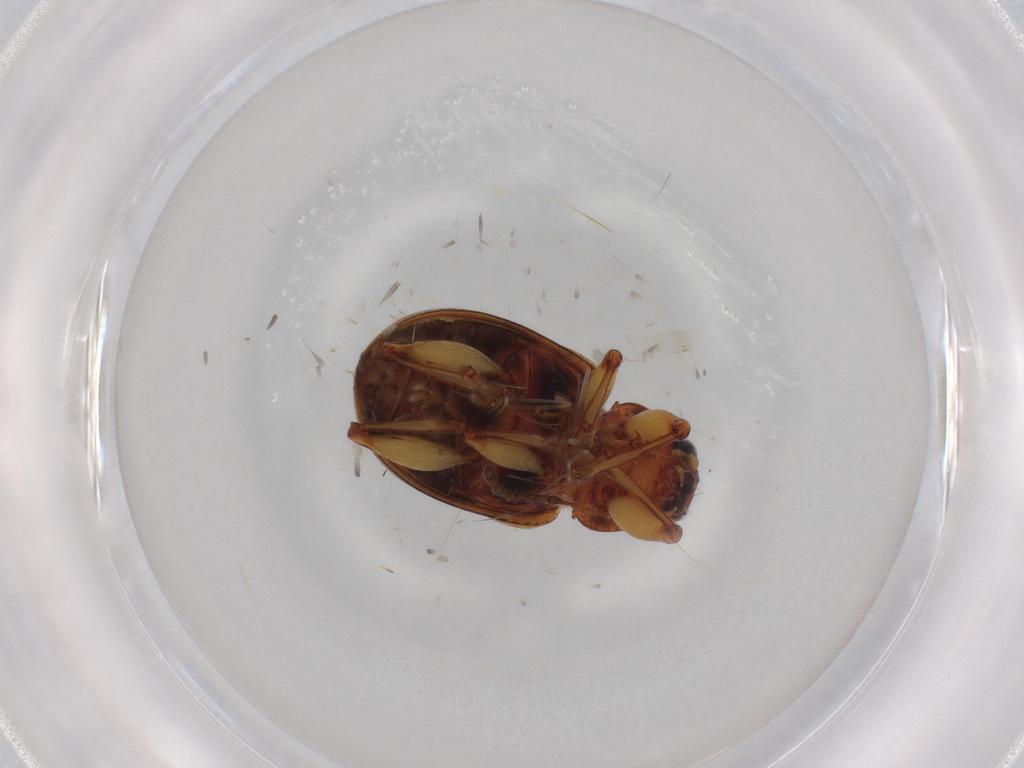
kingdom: Animalia
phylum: Arthropoda
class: Insecta
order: Coleoptera
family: Chrysomelidae
